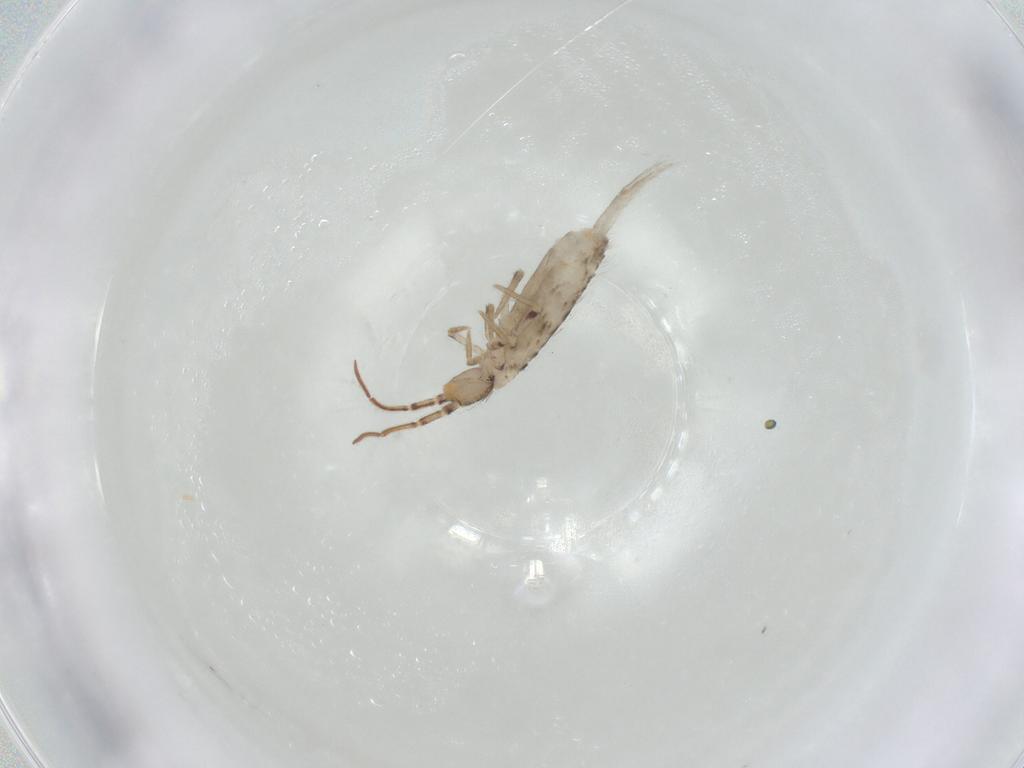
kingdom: Animalia
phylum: Arthropoda
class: Collembola
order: Entomobryomorpha
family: Entomobryidae
